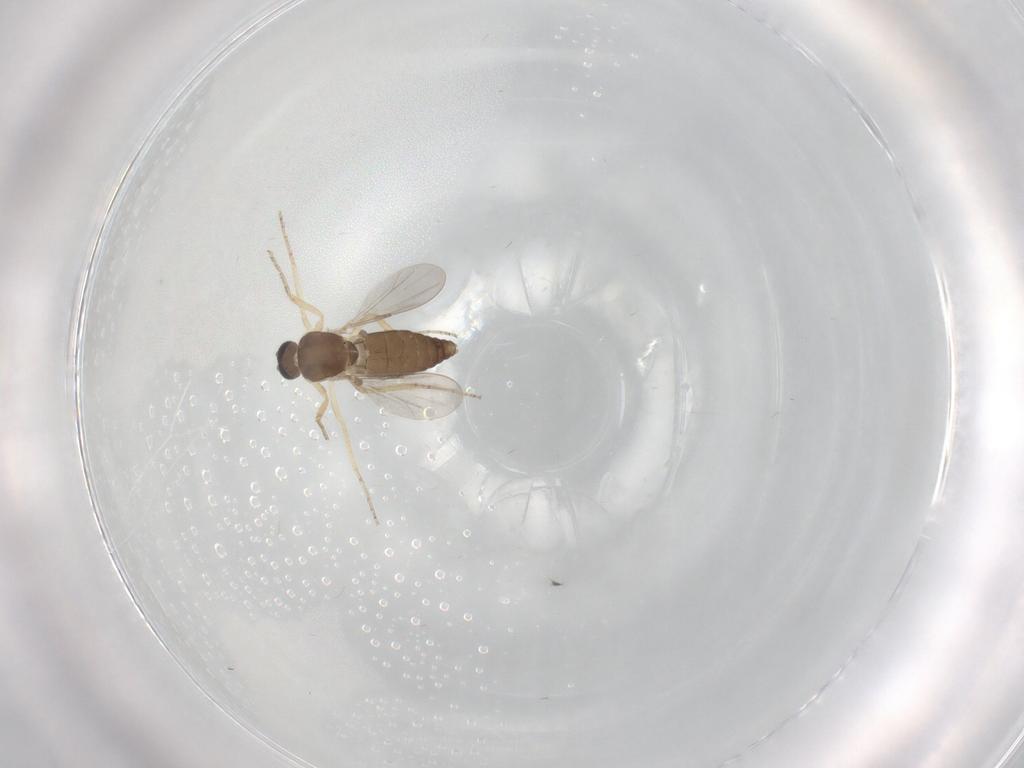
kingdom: Animalia
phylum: Arthropoda
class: Insecta
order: Diptera
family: Ceratopogonidae
